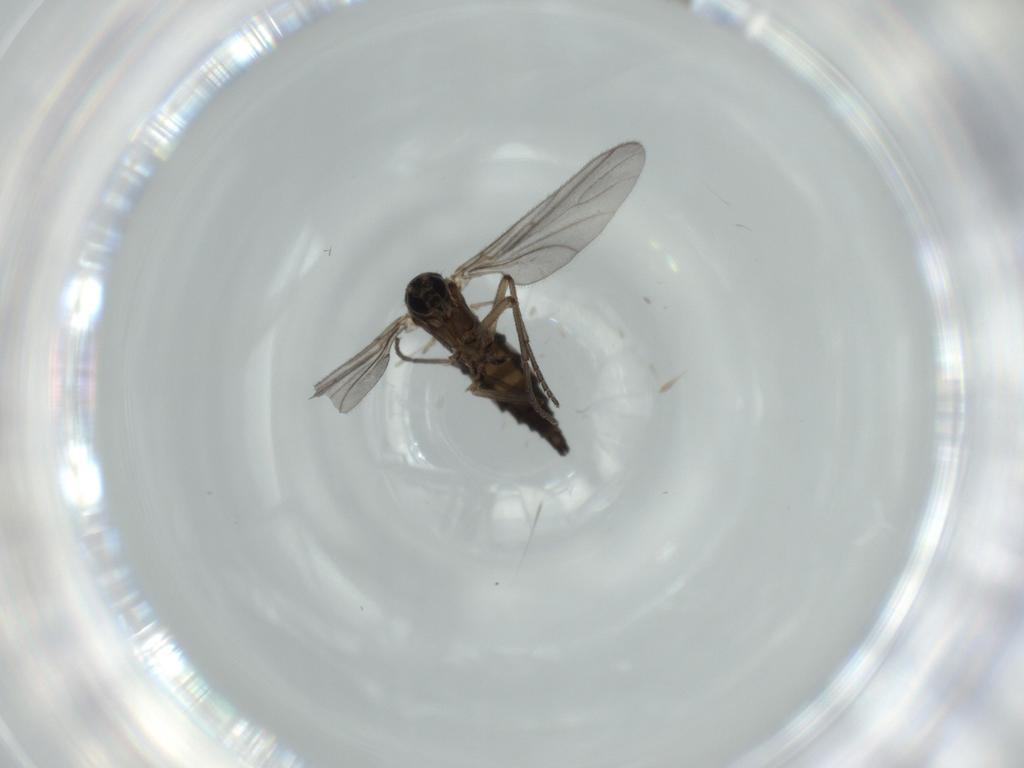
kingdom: Animalia
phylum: Arthropoda
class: Insecta
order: Diptera
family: Sciaridae
